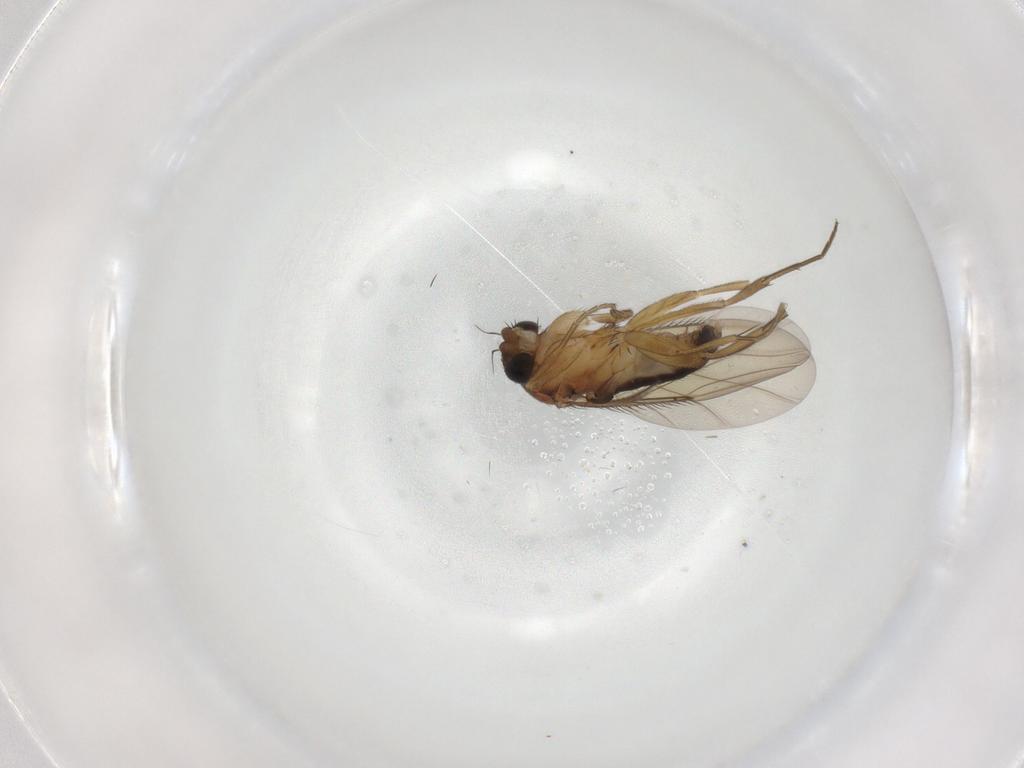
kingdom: Animalia
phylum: Arthropoda
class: Insecta
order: Diptera
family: Phoridae
